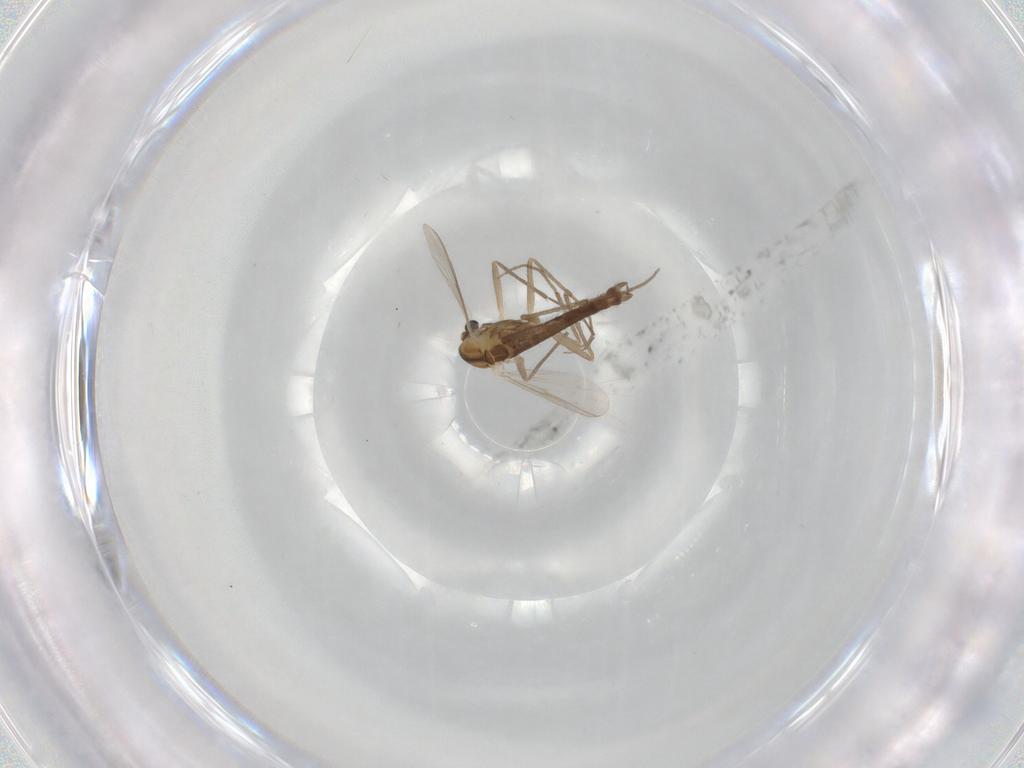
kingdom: Animalia
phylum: Arthropoda
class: Insecta
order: Diptera
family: Chironomidae
